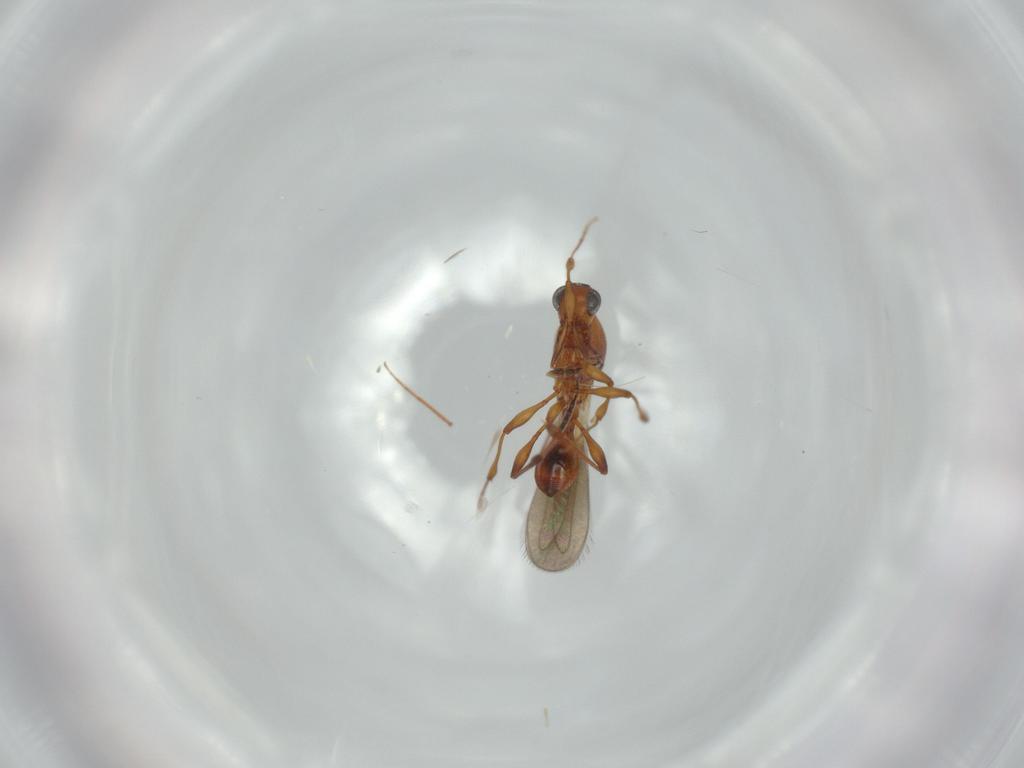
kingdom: Animalia
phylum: Arthropoda
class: Insecta
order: Hymenoptera
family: Platygastridae
